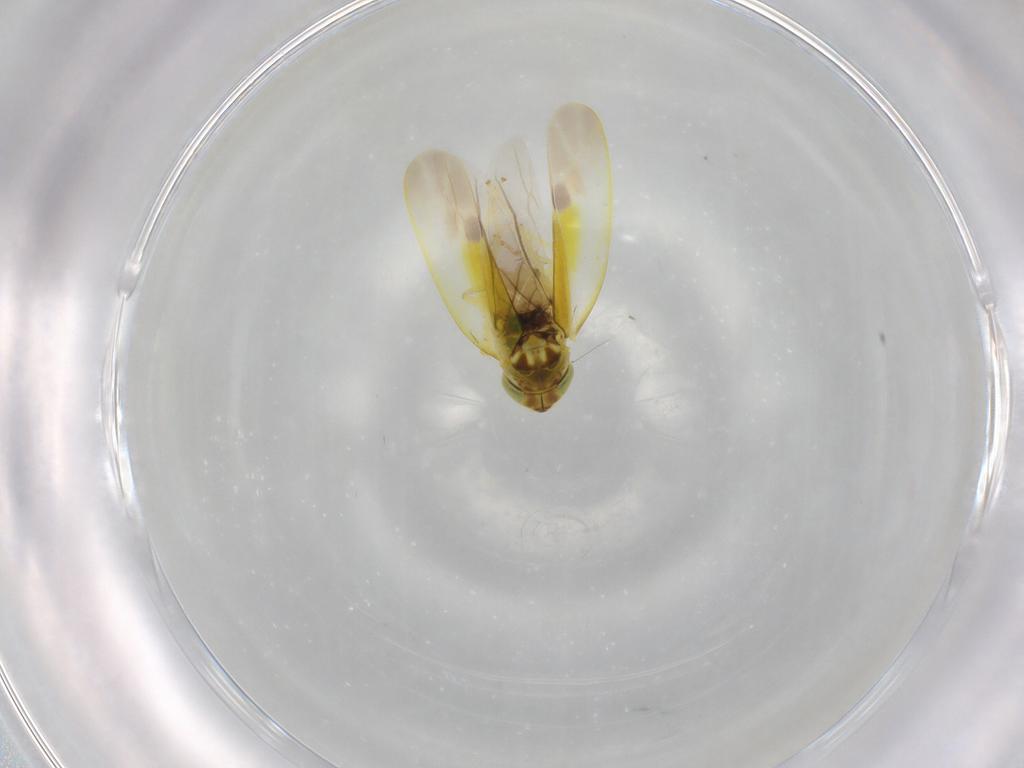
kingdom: Animalia
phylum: Arthropoda
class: Insecta
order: Hemiptera
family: Cicadellidae
